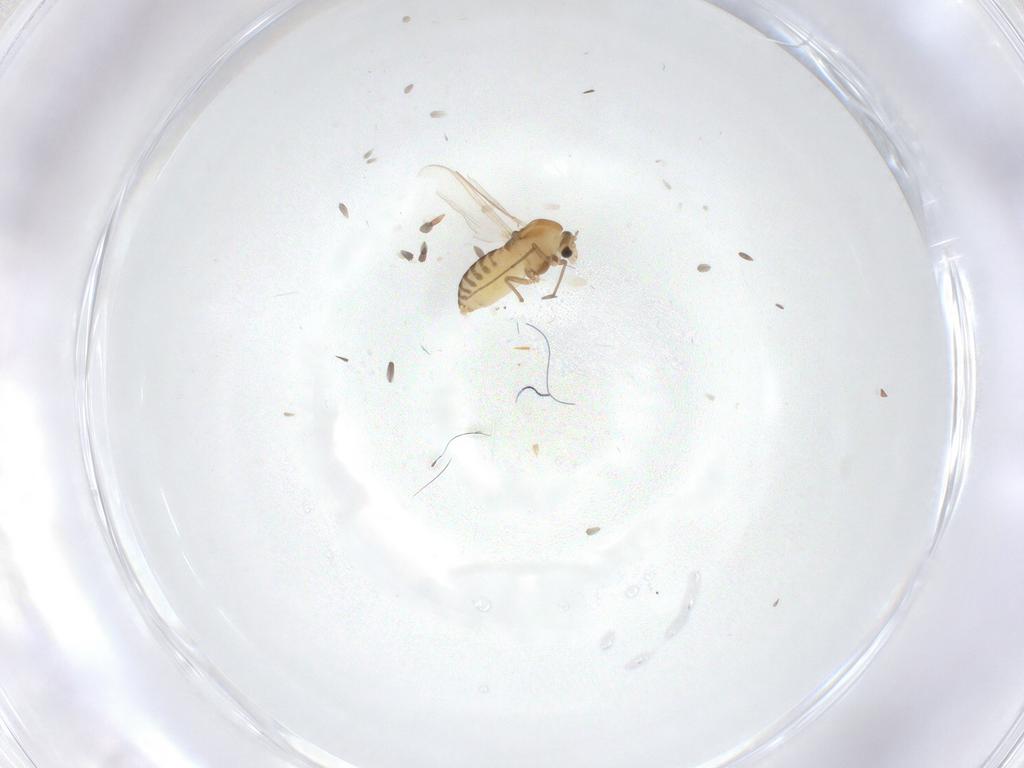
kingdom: Animalia
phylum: Arthropoda
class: Insecta
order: Diptera
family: Chironomidae
